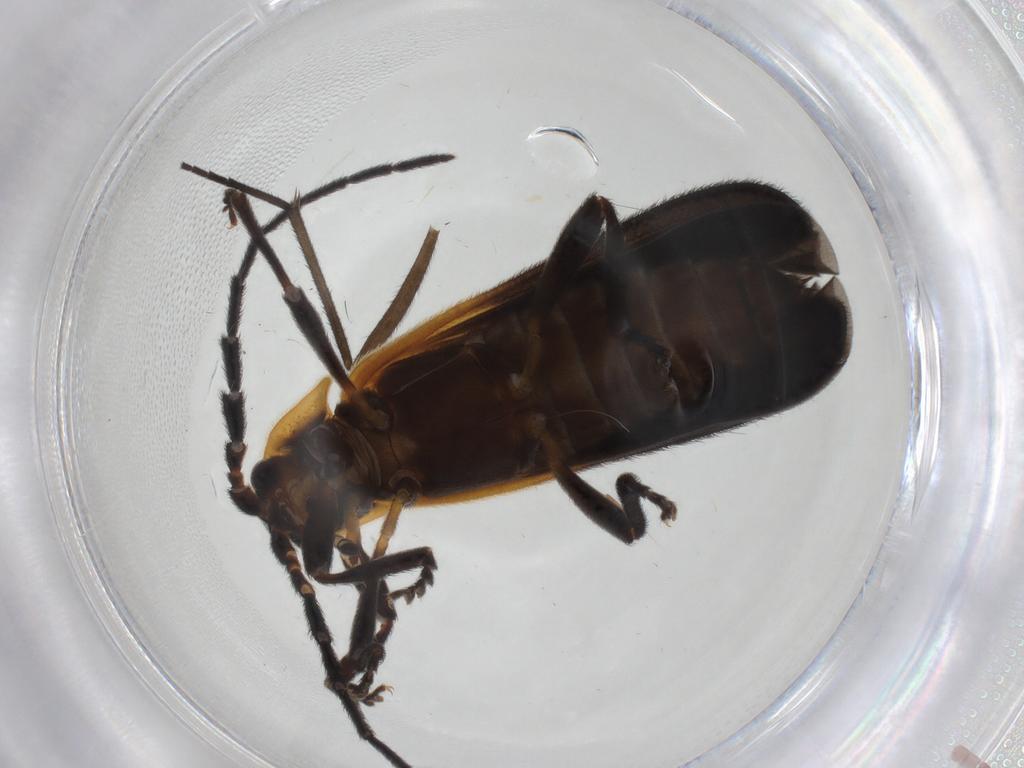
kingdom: Animalia
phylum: Arthropoda
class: Insecta
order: Coleoptera
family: Lycidae
